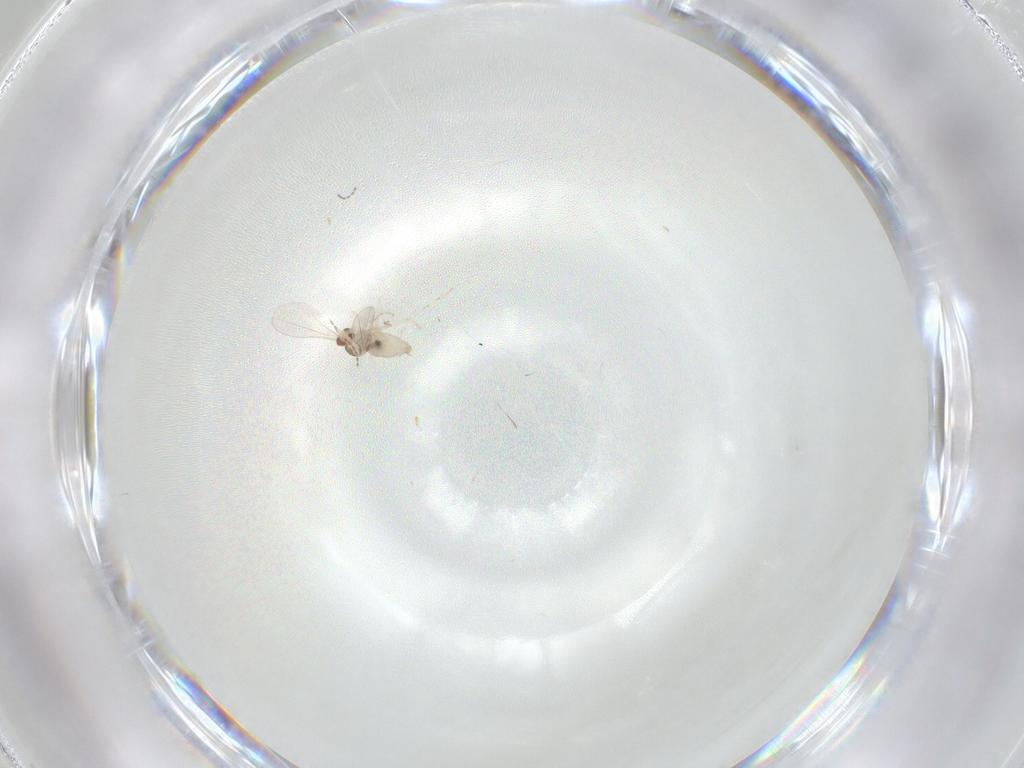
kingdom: Animalia
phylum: Arthropoda
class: Insecta
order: Diptera
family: Cecidomyiidae
